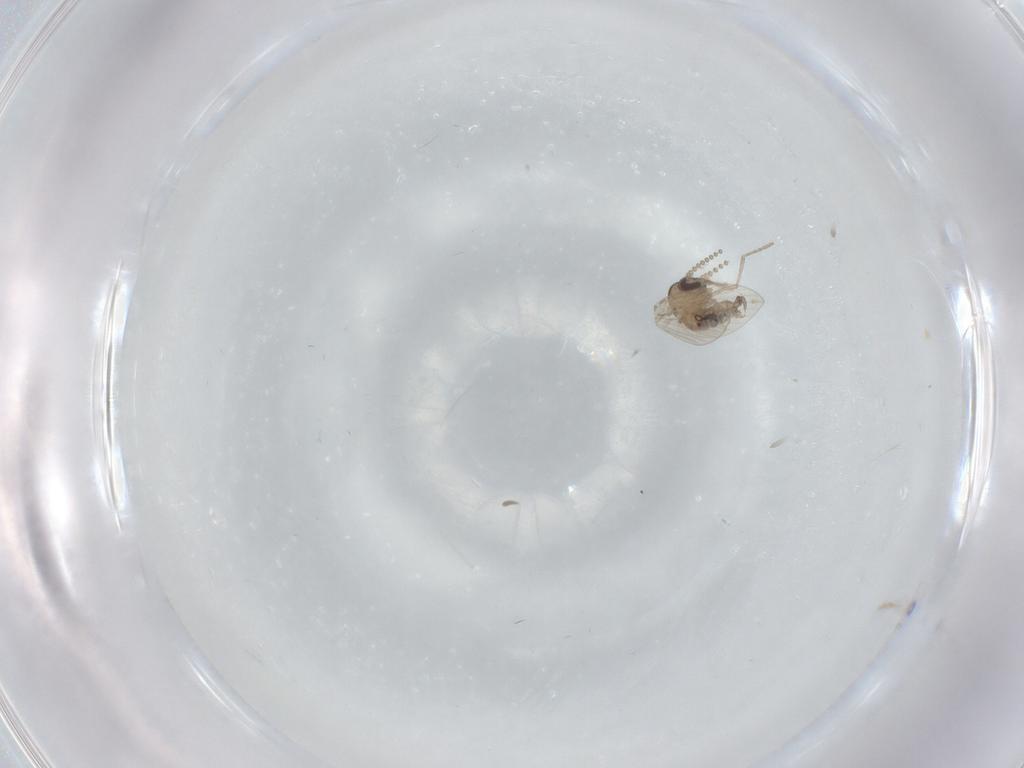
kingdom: Animalia
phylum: Arthropoda
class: Insecta
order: Diptera
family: Psychodidae
